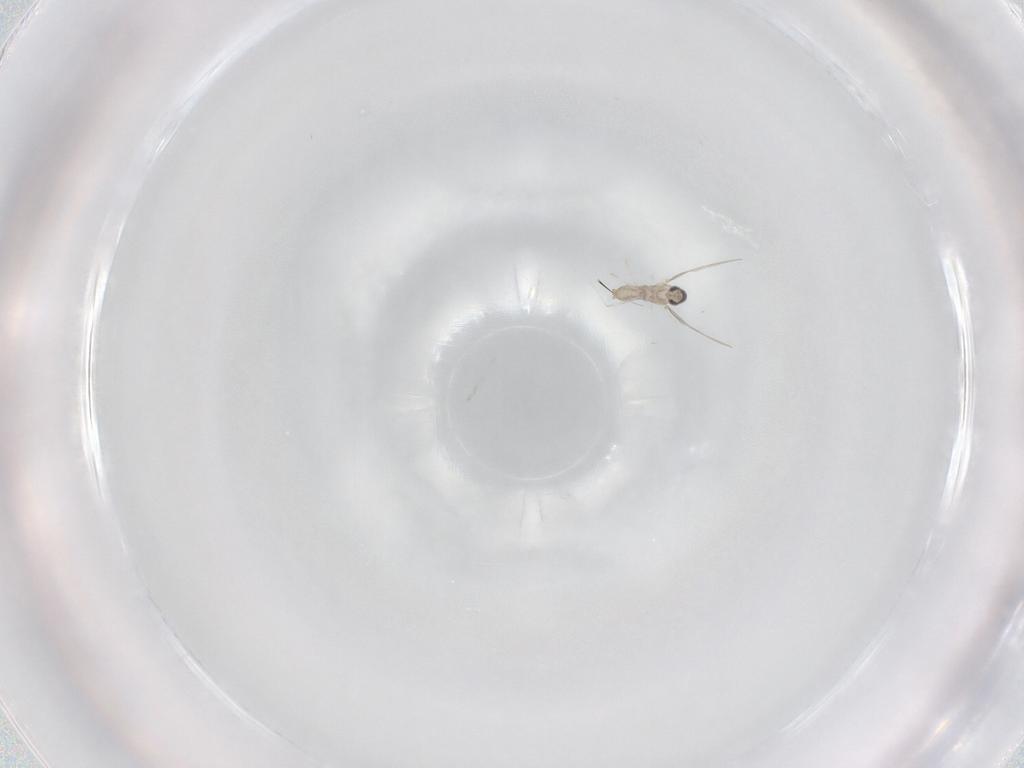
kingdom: Animalia
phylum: Arthropoda
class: Insecta
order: Diptera
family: Cecidomyiidae
